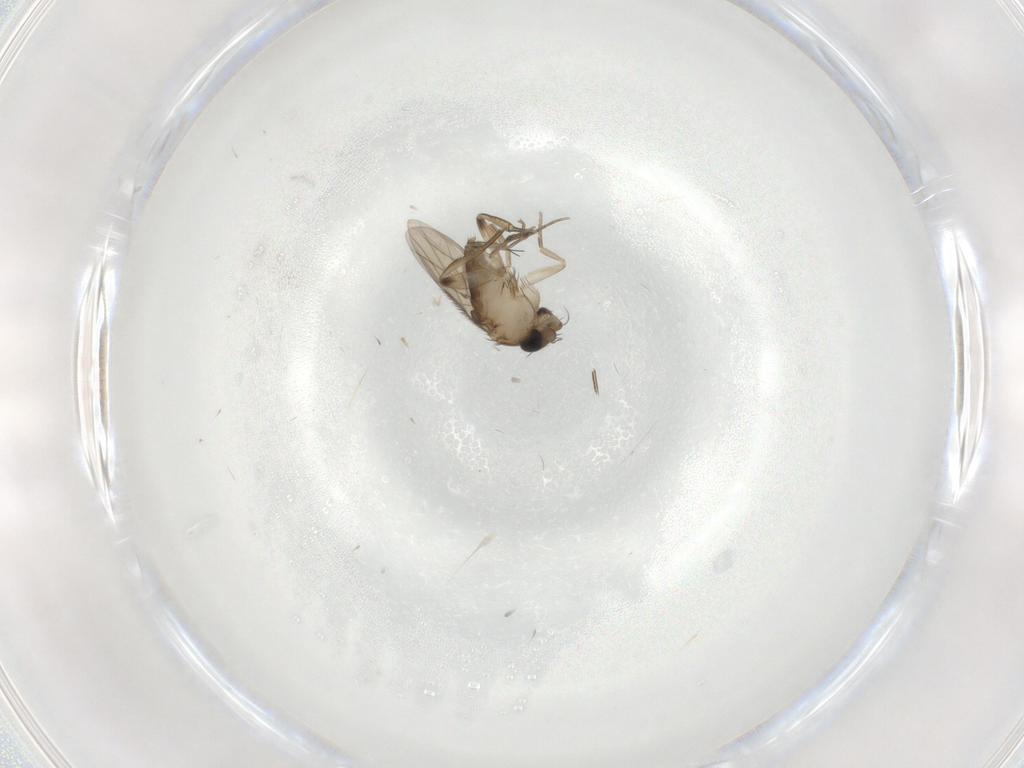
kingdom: Animalia
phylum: Arthropoda
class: Insecta
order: Diptera
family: Phoridae
